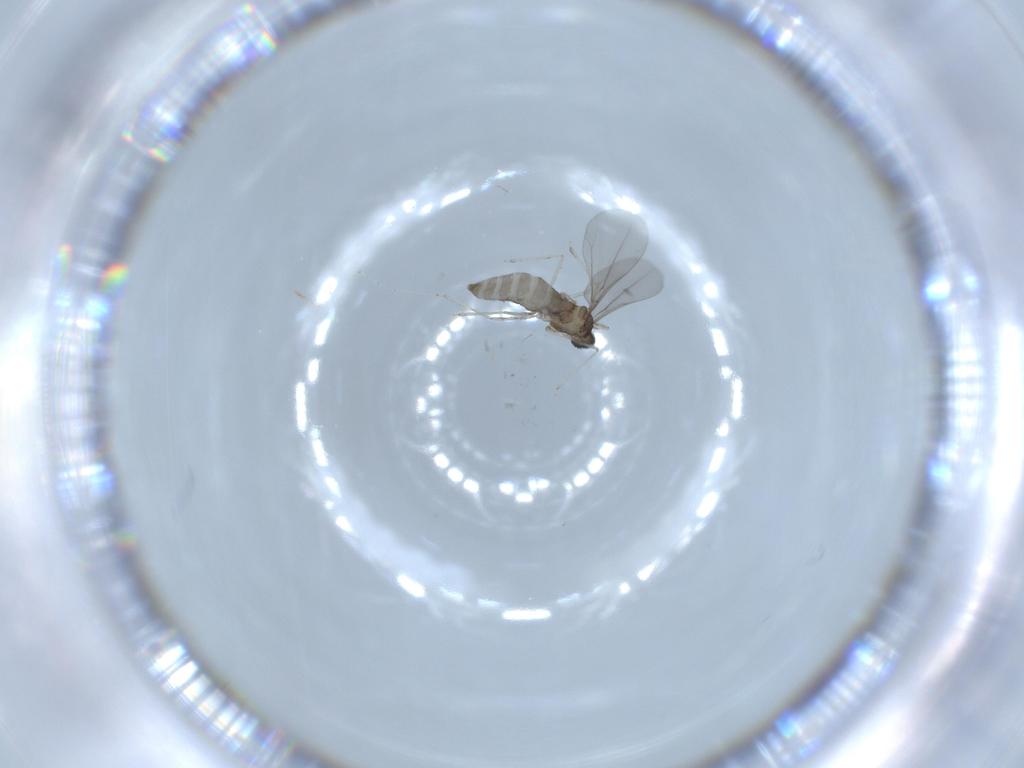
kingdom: Animalia
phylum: Arthropoda
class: Insecta
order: Diptera
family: Cecidomyiidae
